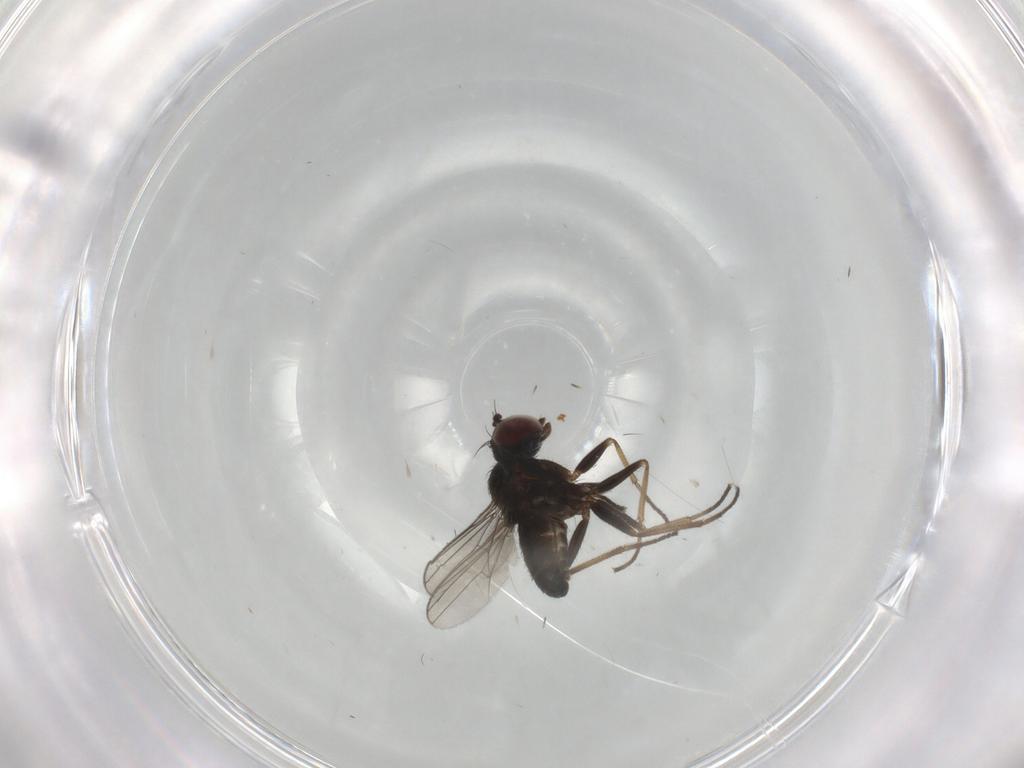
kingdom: Animalia
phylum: Arthropoda
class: Insecta
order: Diptera
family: Dolichopodidae
